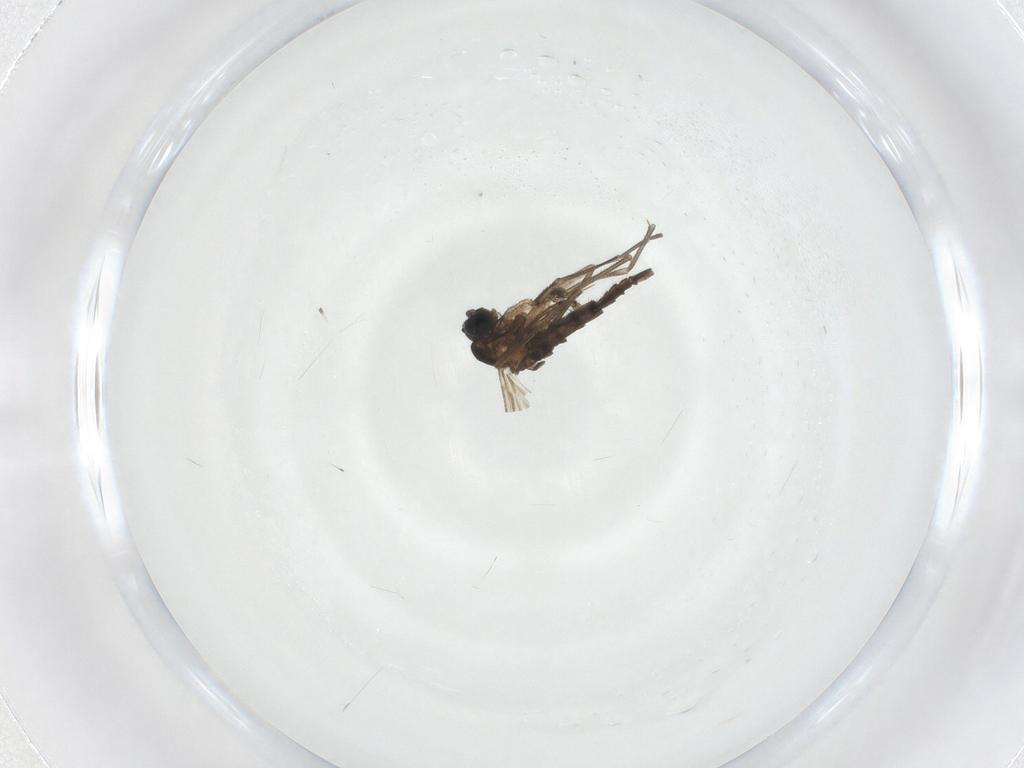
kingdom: Animalia
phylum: Arthropoda
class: Insecta
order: Diptera
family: Sciaridae
